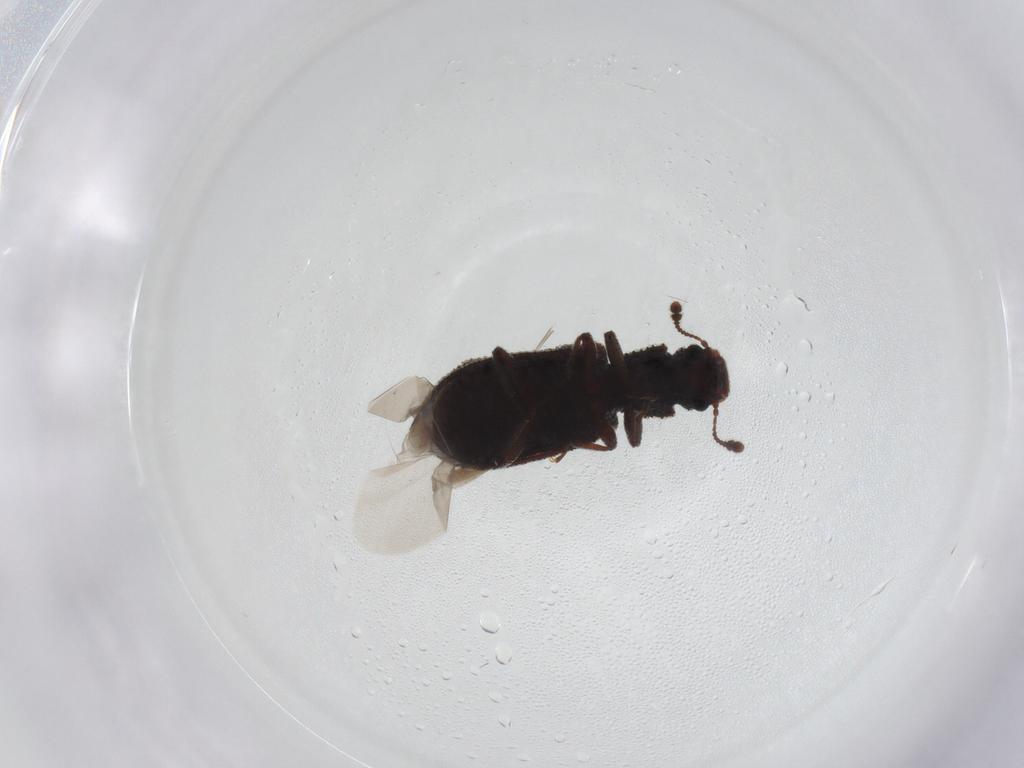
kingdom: Animalia
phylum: Arthropoda
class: Insecta
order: Coleoptera
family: Zopheridae
